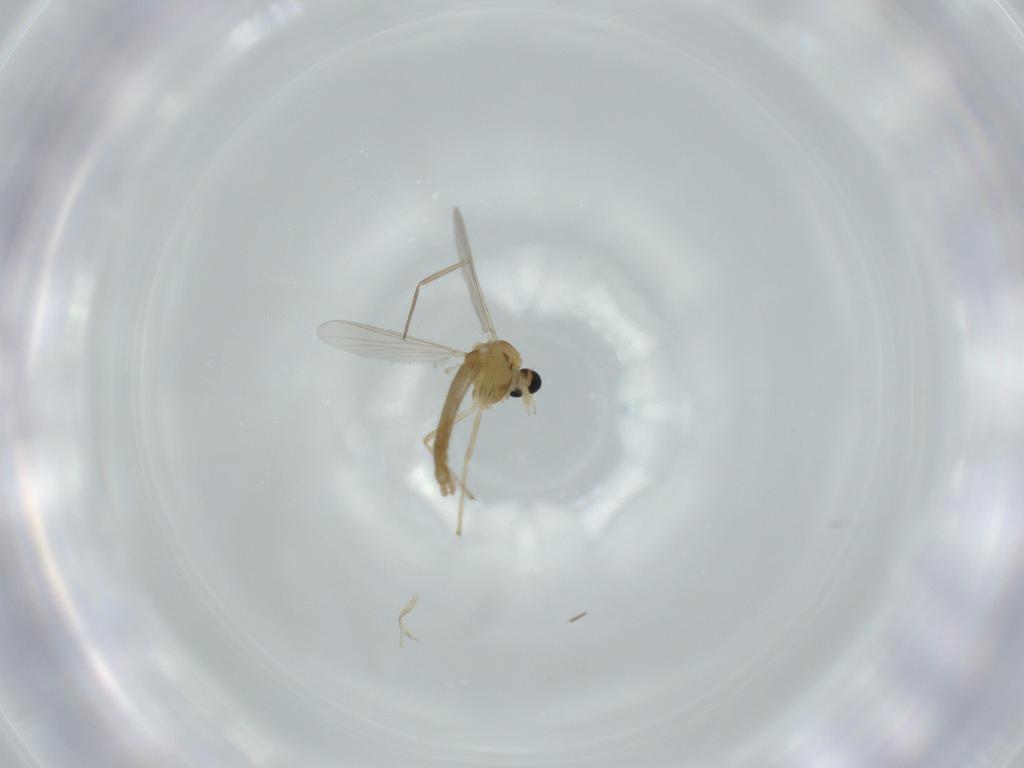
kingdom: Animalia
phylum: Arthropoda
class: Insecta
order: Diptera
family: Chironomidae
